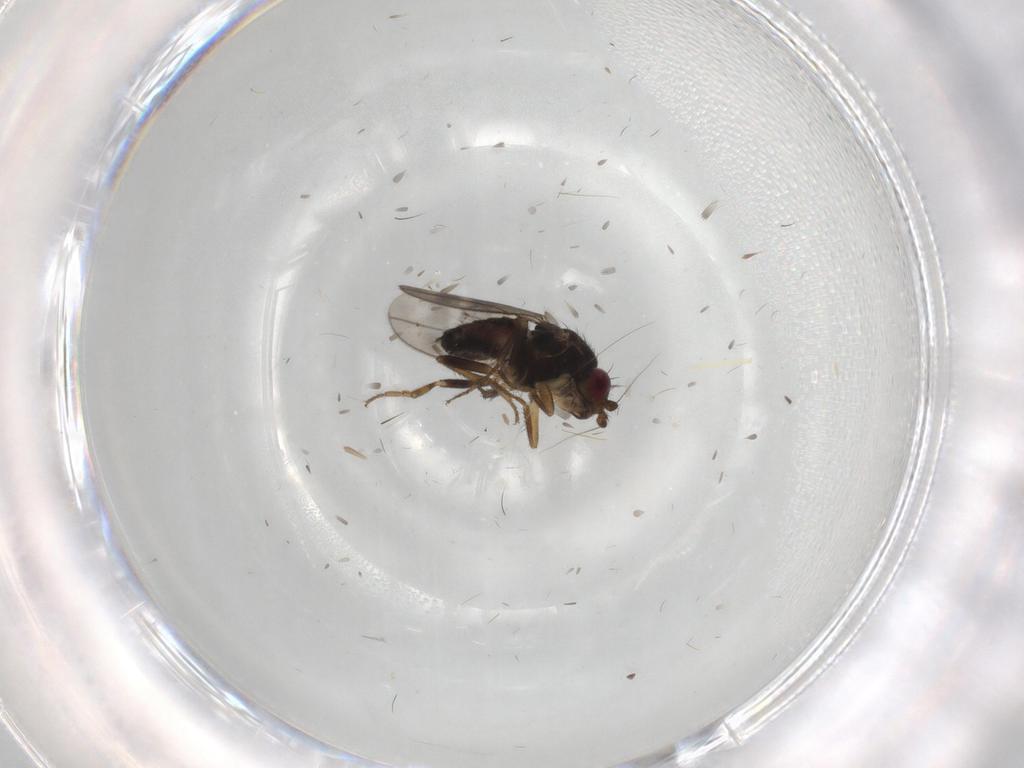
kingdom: Animalia
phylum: Arthropoda
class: Insecta
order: Diptera
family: Sphaeroceridae
